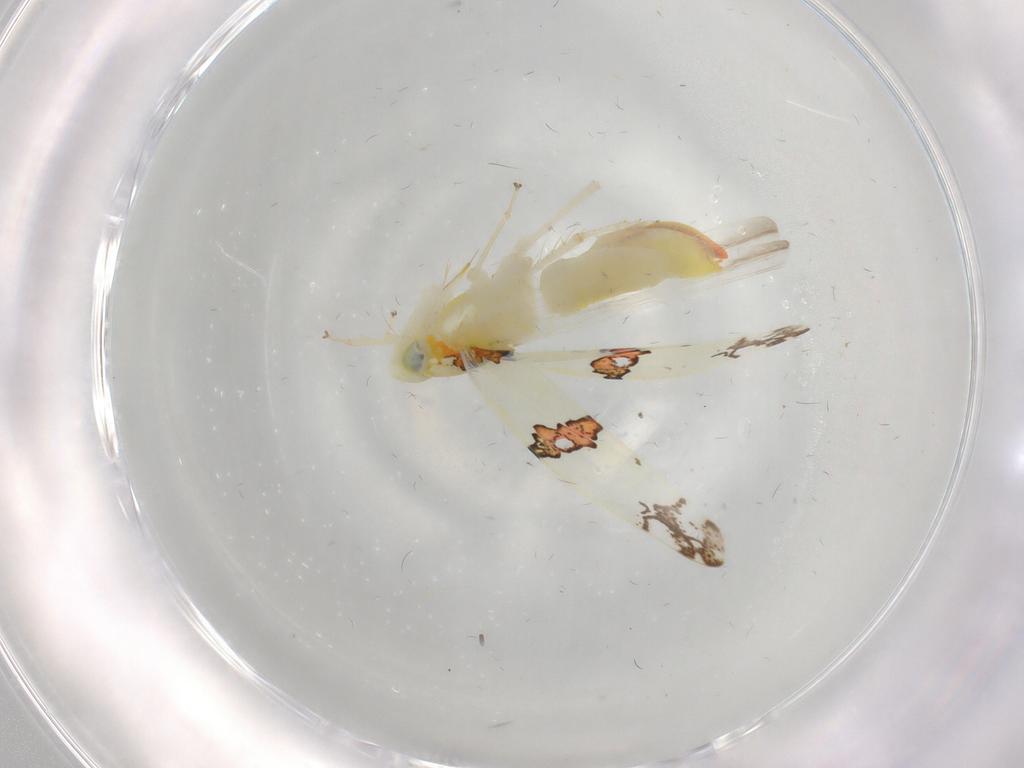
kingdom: Animalia
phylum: Arthropoda
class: Insecta
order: Hemiptera
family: Cicadellidae
